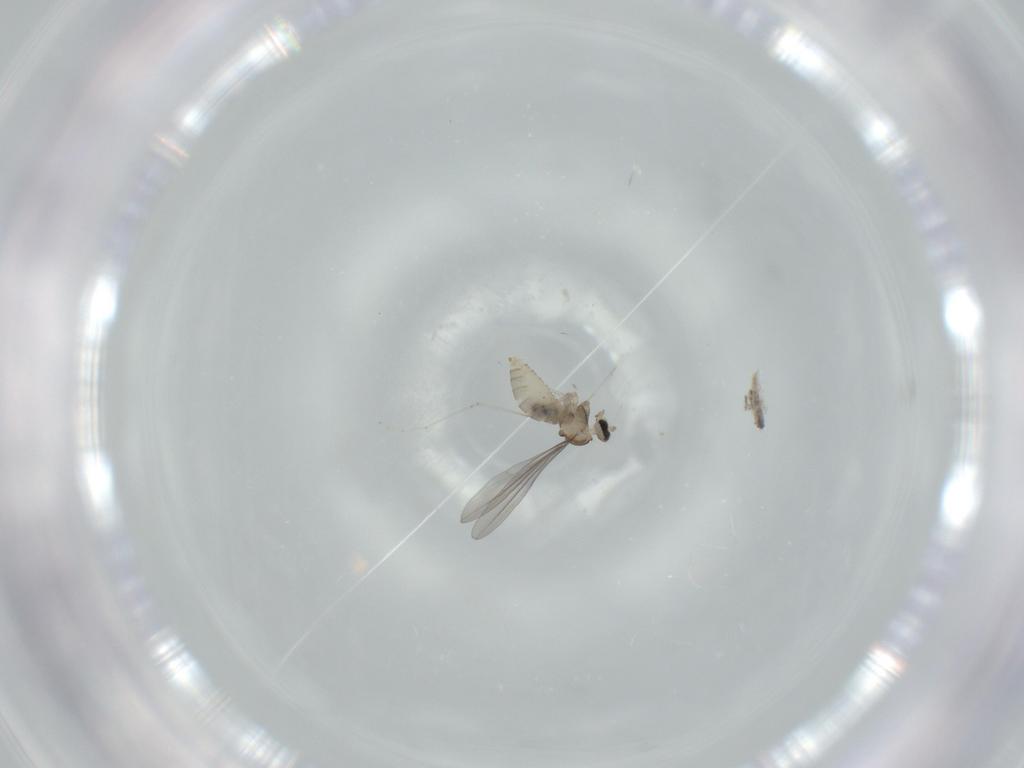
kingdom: Animalia
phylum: Arthropoda
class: Insecta
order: Diptera
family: Cecidomyiidae
